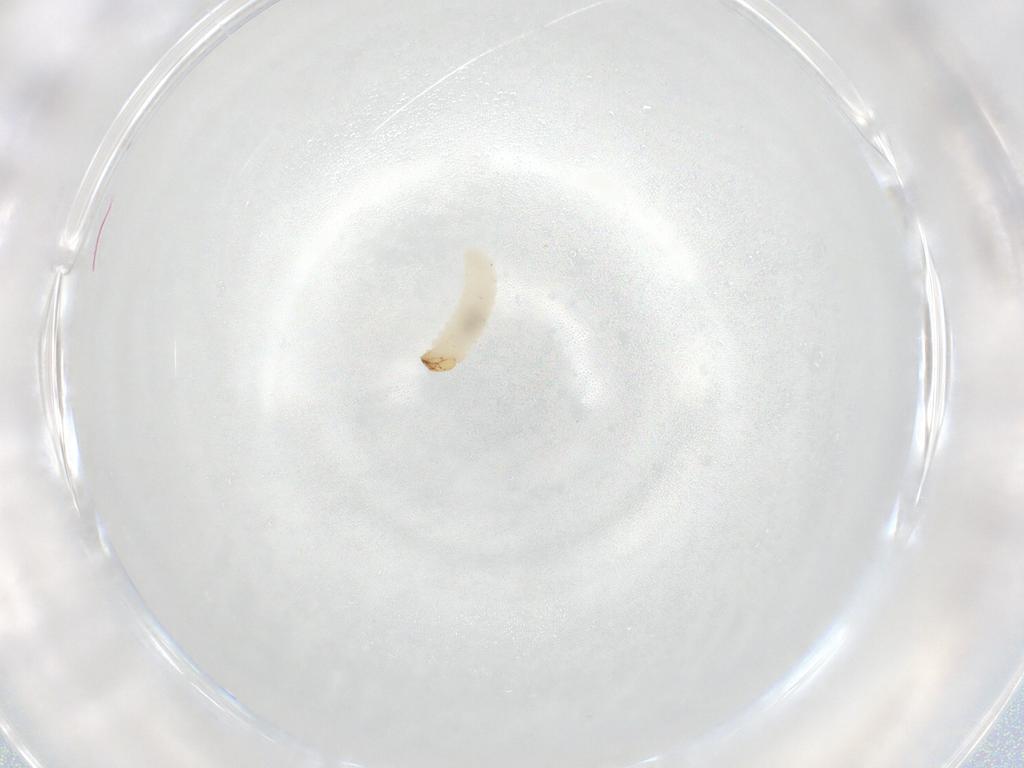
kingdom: Animalia
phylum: Arthropoda
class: Insecta
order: Coleoptera
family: Curculionidae
